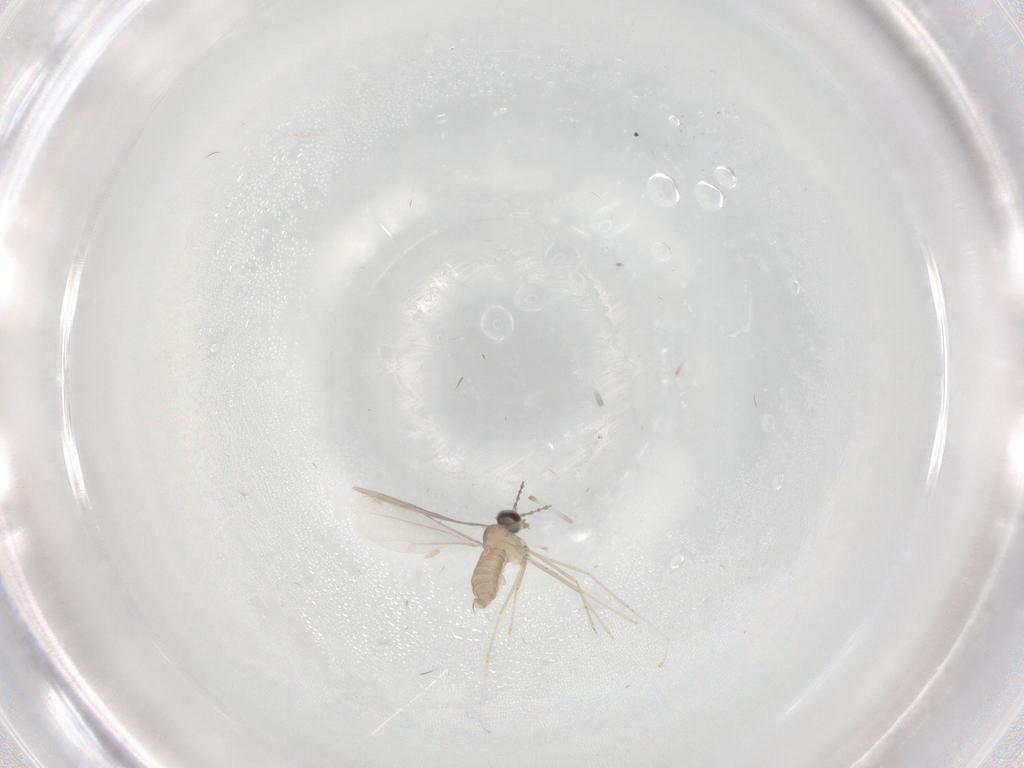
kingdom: Animalia
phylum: Arthropoda
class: Insecta
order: Diptera
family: Cecidomyiidae
